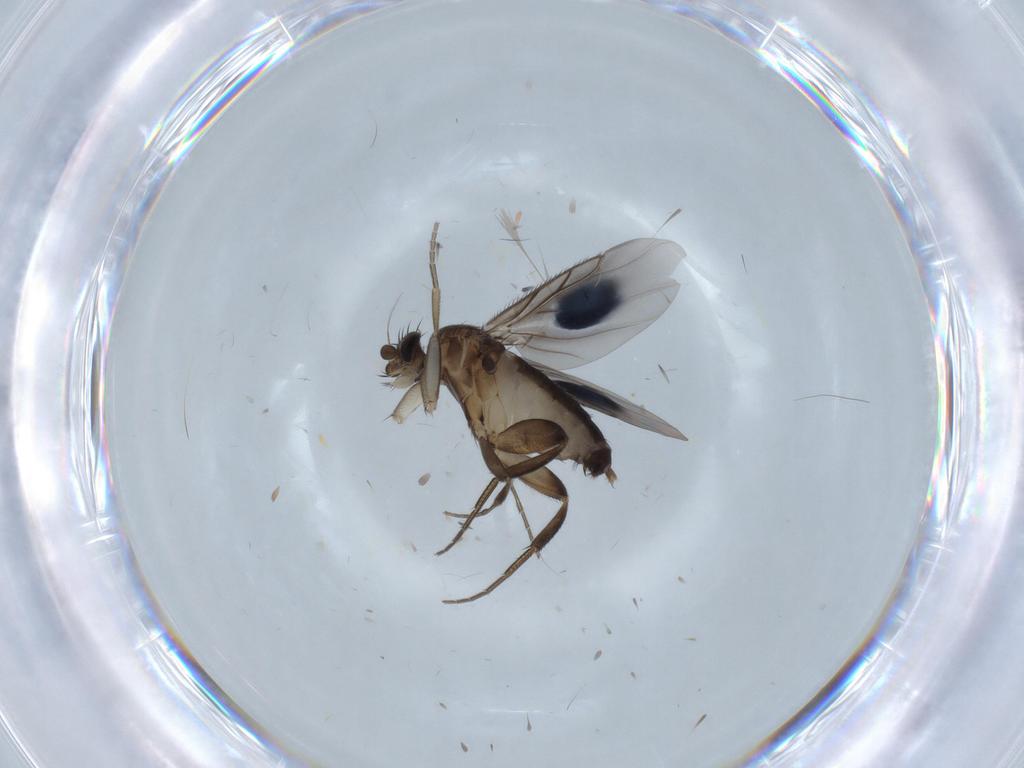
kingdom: Animalia
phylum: Arthropoda
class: Insecta
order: Diptera
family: Phoridae
